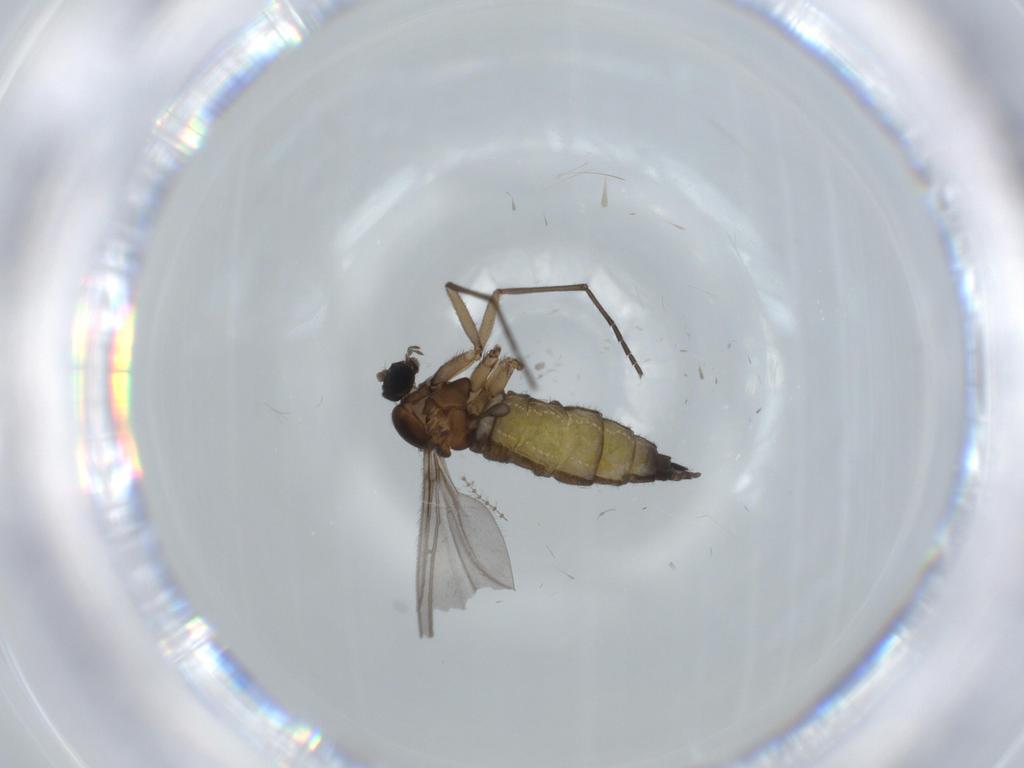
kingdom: Animalia
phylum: Arthropoda
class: Insecta
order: Diptera
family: Sciaridae
